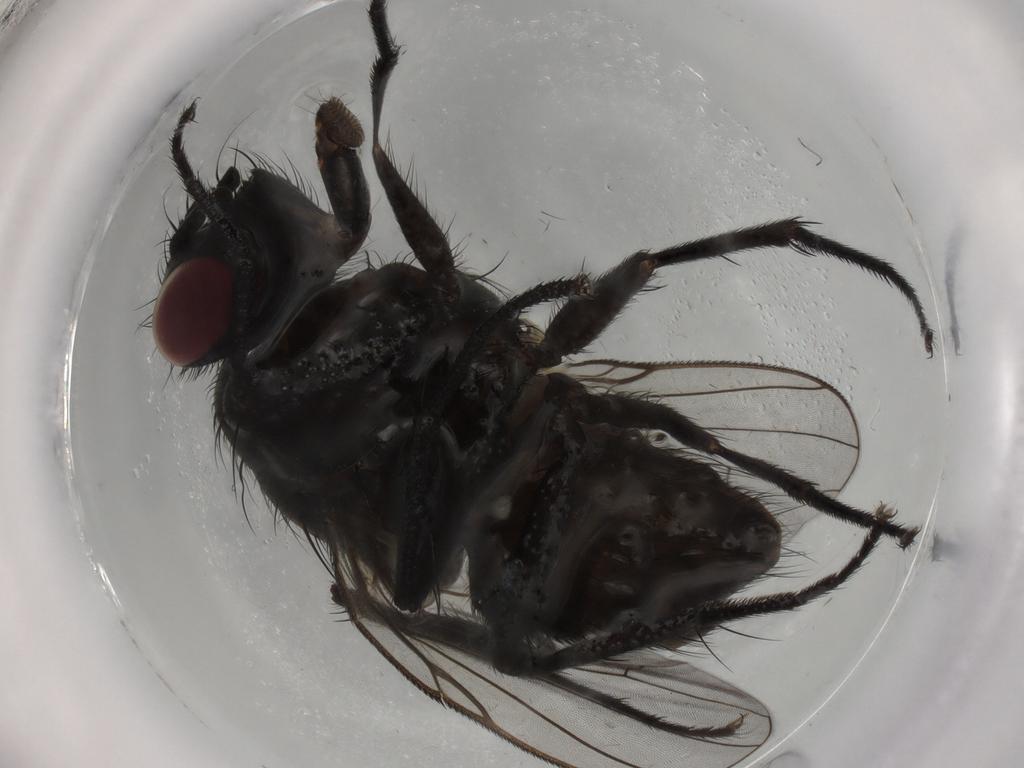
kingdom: Animalia
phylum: Arthropoda
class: Insecta
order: Diptera
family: Muscidae
